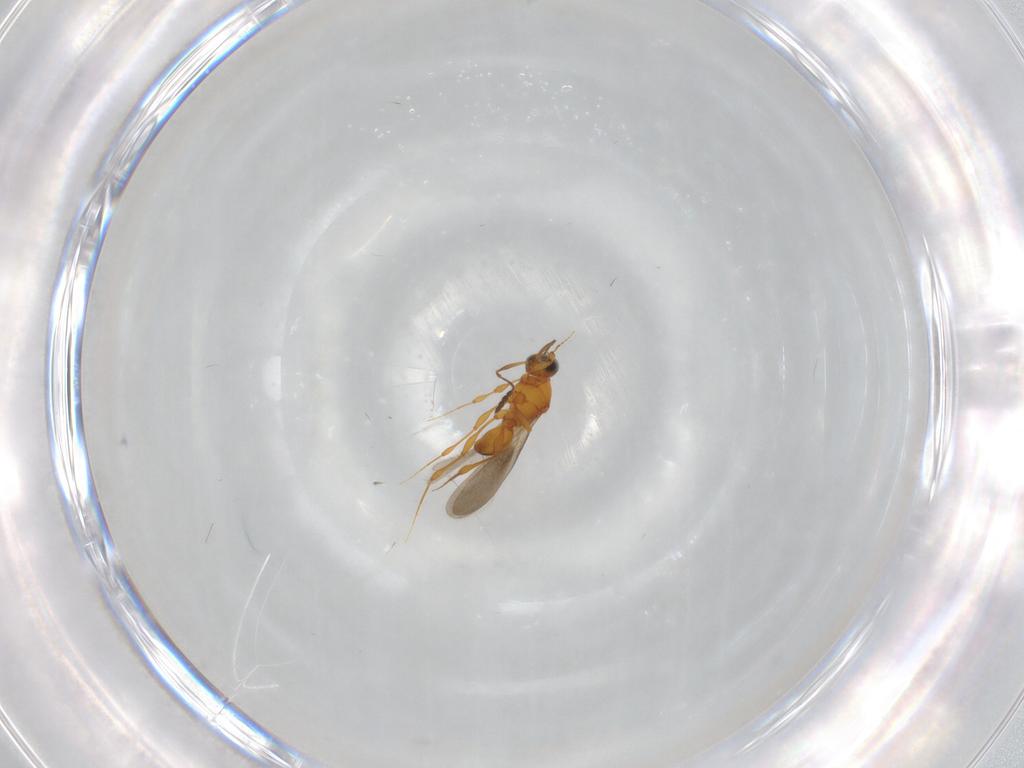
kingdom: Animalia
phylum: Arthropoda
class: Insecta
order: Hymenoptera
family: Platygastridae
